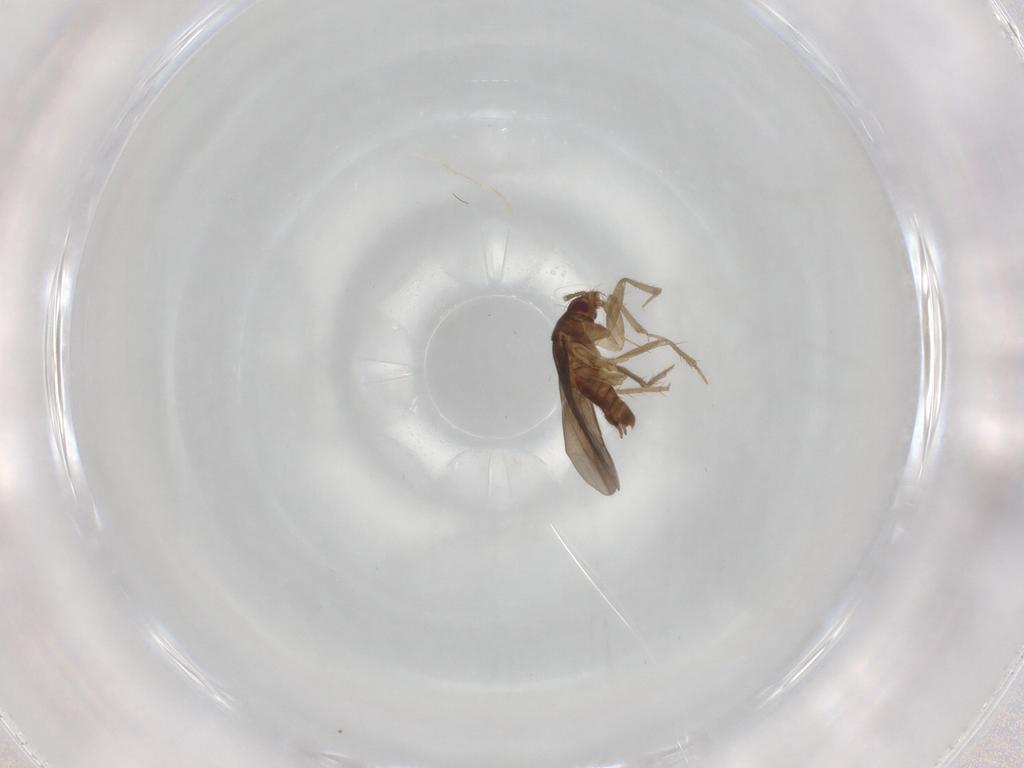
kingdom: Animalia
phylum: Arthropoda
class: Insecta
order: Hemiptera
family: Ceratocombidae
